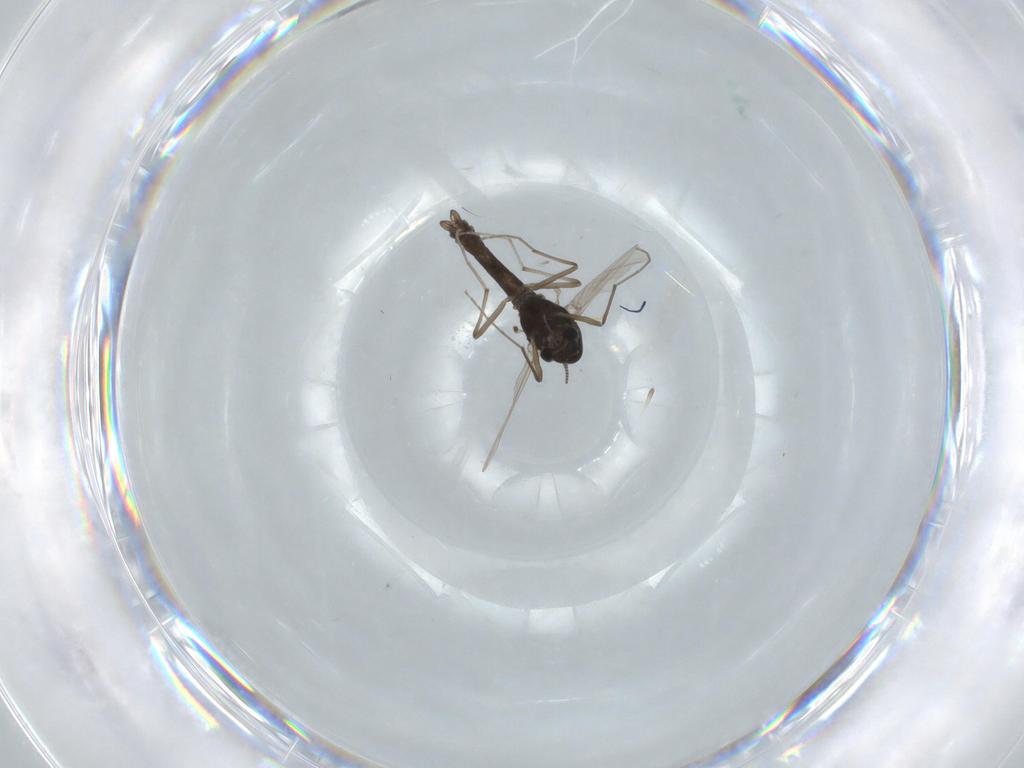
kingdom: Animalia
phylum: Arthropoda
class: Insecta
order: Diptera
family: Chironomidae
